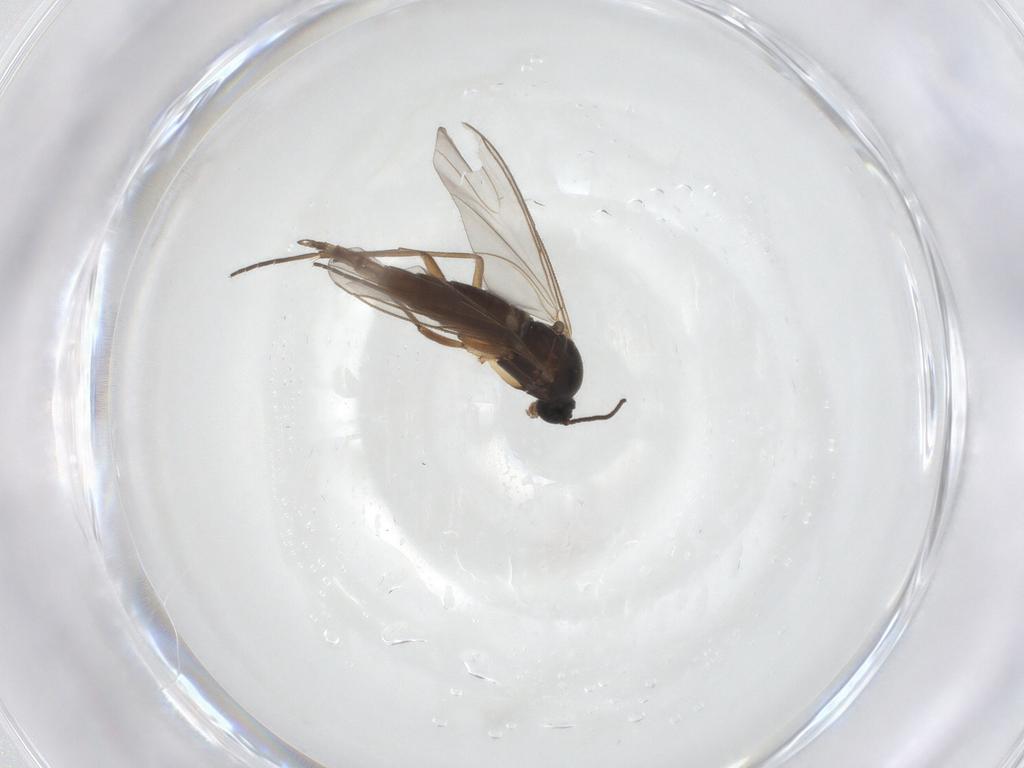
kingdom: Animalia
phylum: Arthropoda
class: Insecta
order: Diptera
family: Sciaridae
